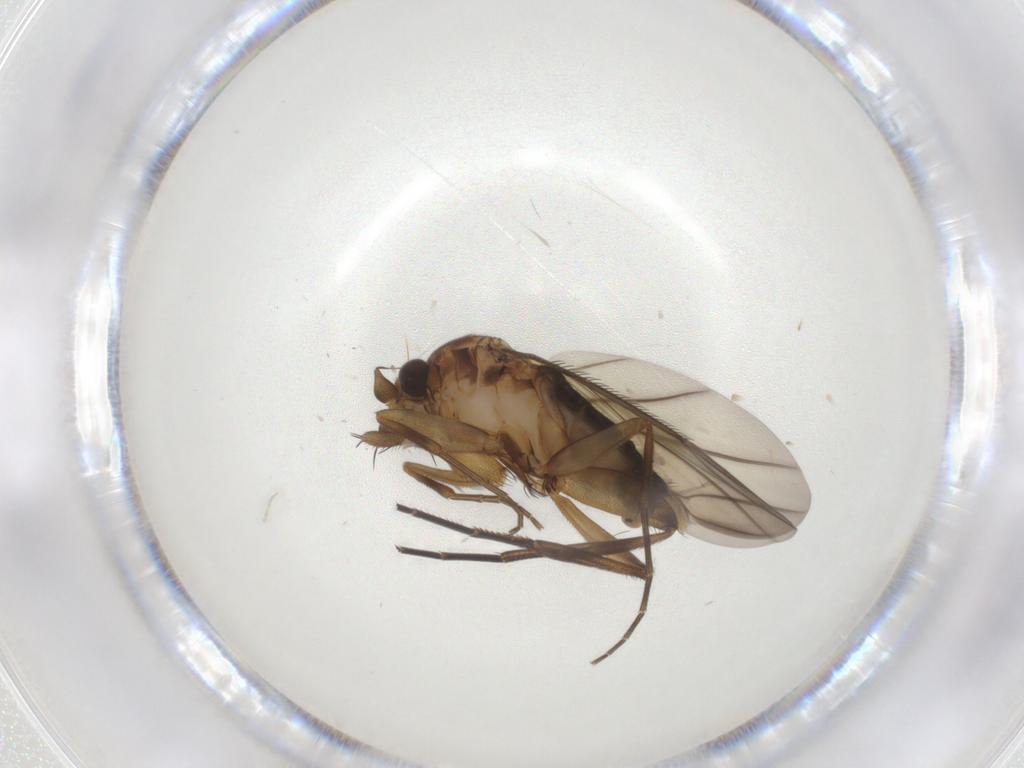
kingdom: Animalia
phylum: Arthropoda
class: Insecta
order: Diptera
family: Phoridae
